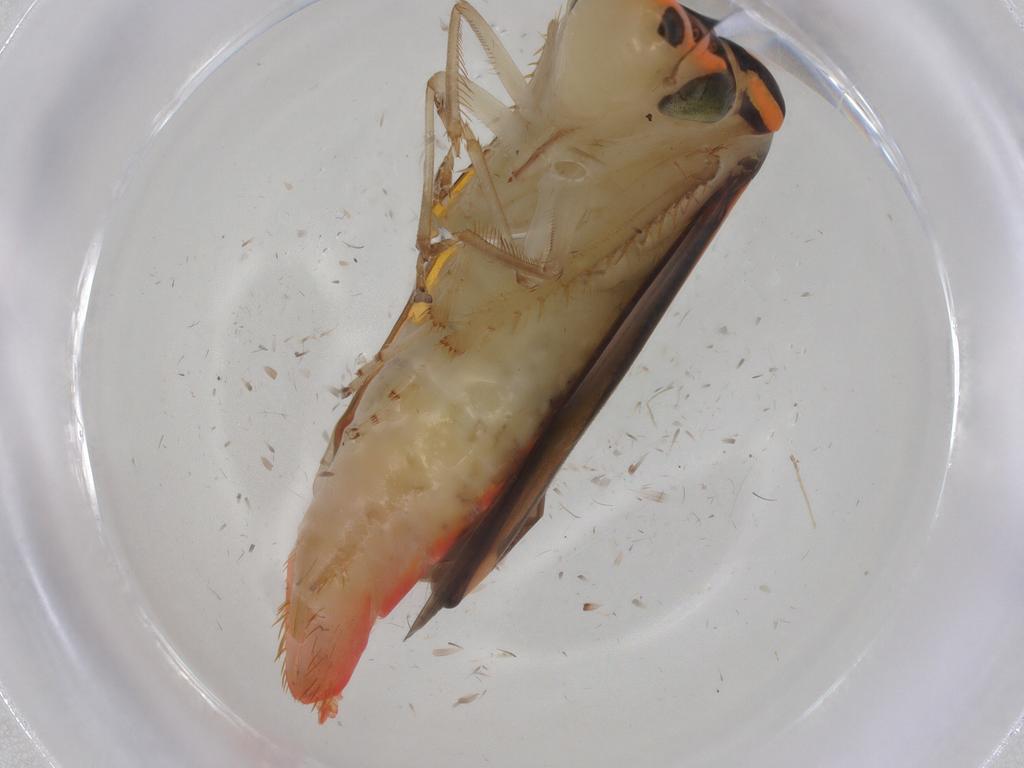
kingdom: Animalia
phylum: Arthropoda
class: Insecta
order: Hemiptera
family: Cicadellidae
